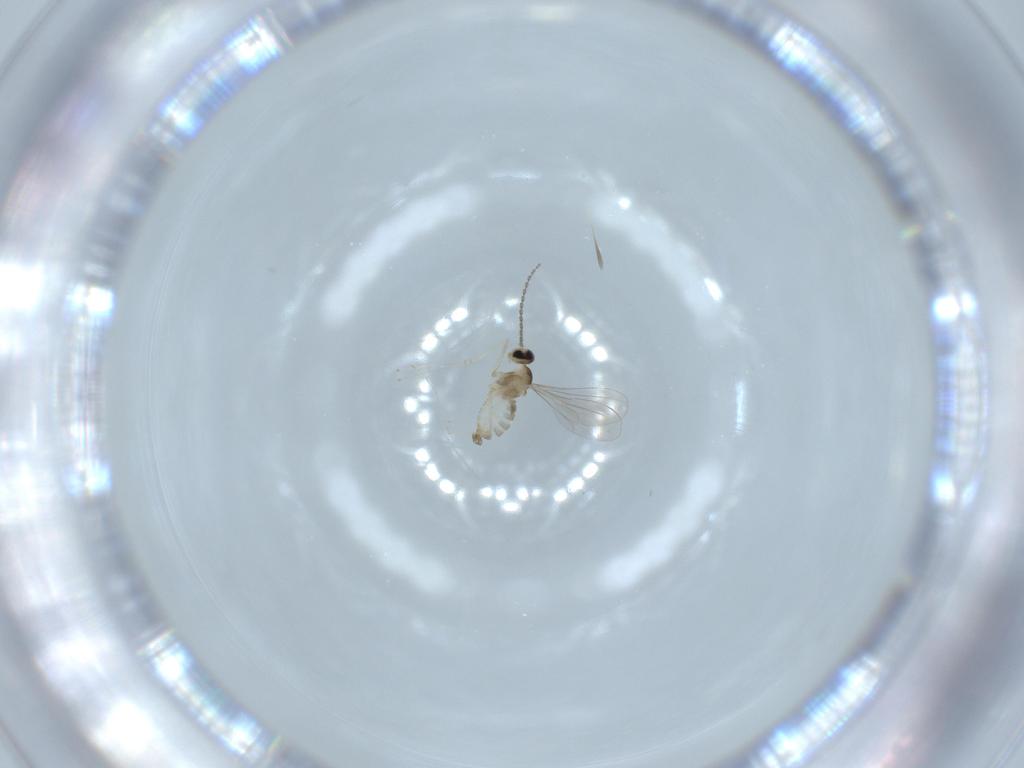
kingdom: Animalia
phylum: Arthropoda
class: Insecta
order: Diptera
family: Cecidomyiidae
